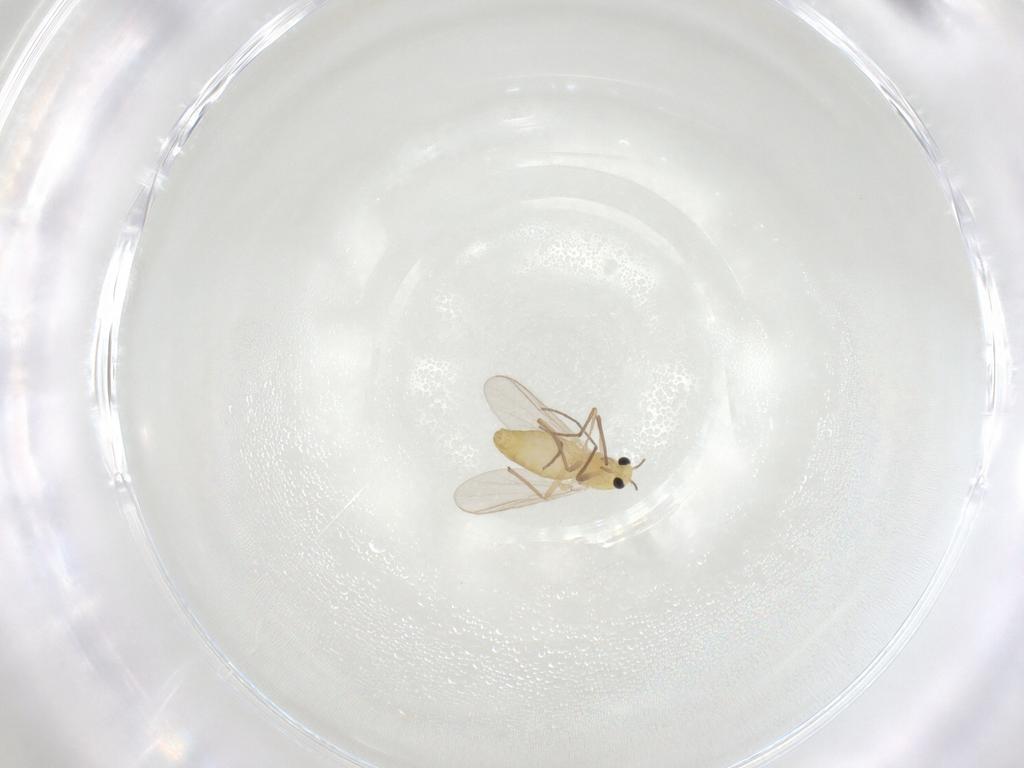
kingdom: Animalia
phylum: Arthropoda
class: Insecta
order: Diptera
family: Chironomidae
